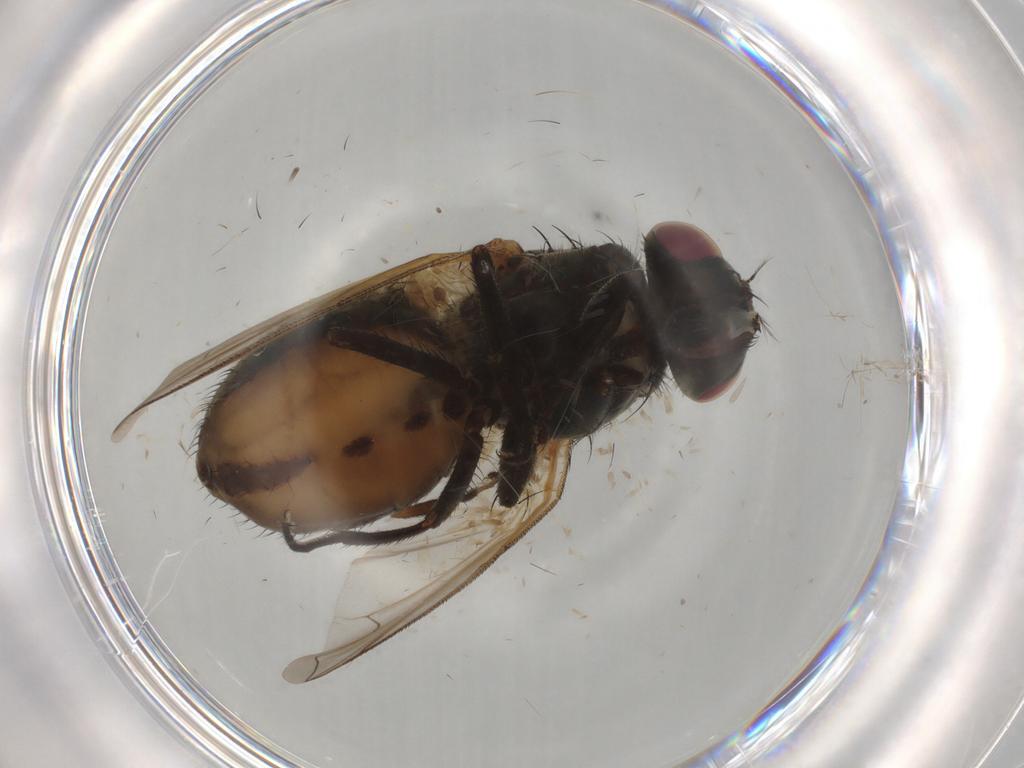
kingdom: Animalia
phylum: Arthropoda
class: Insecta
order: Diptera
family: Muscidae
